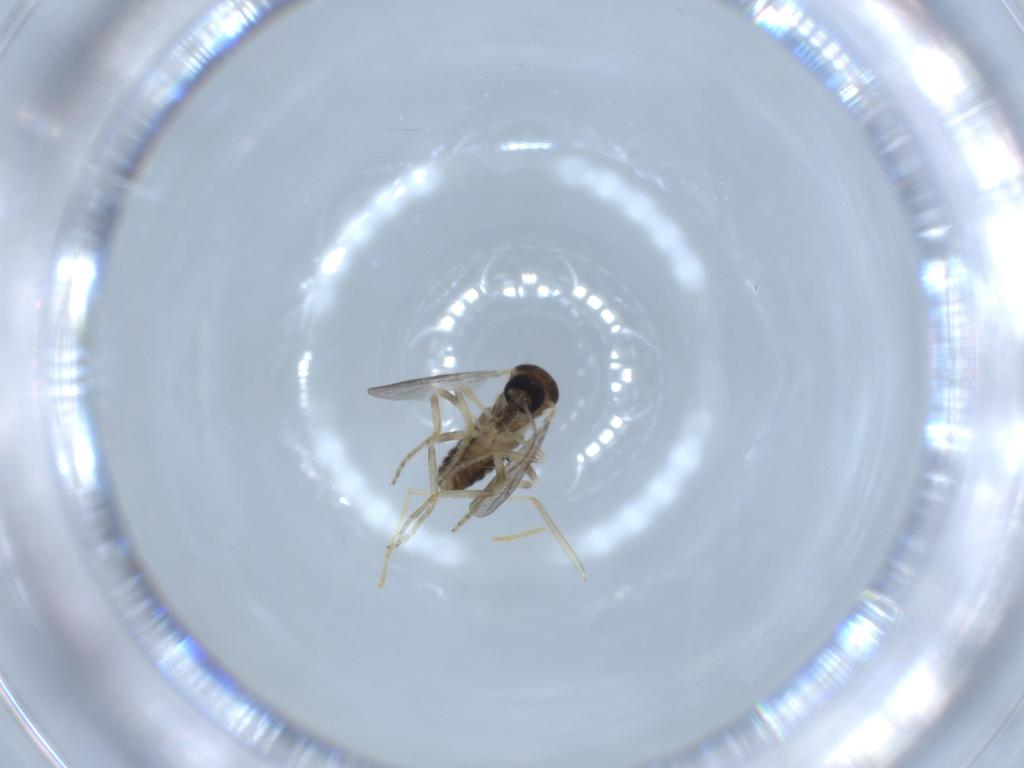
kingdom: Animalia
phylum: Arthropoda
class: Insecta
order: Diptera
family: Ceratopogonidae
